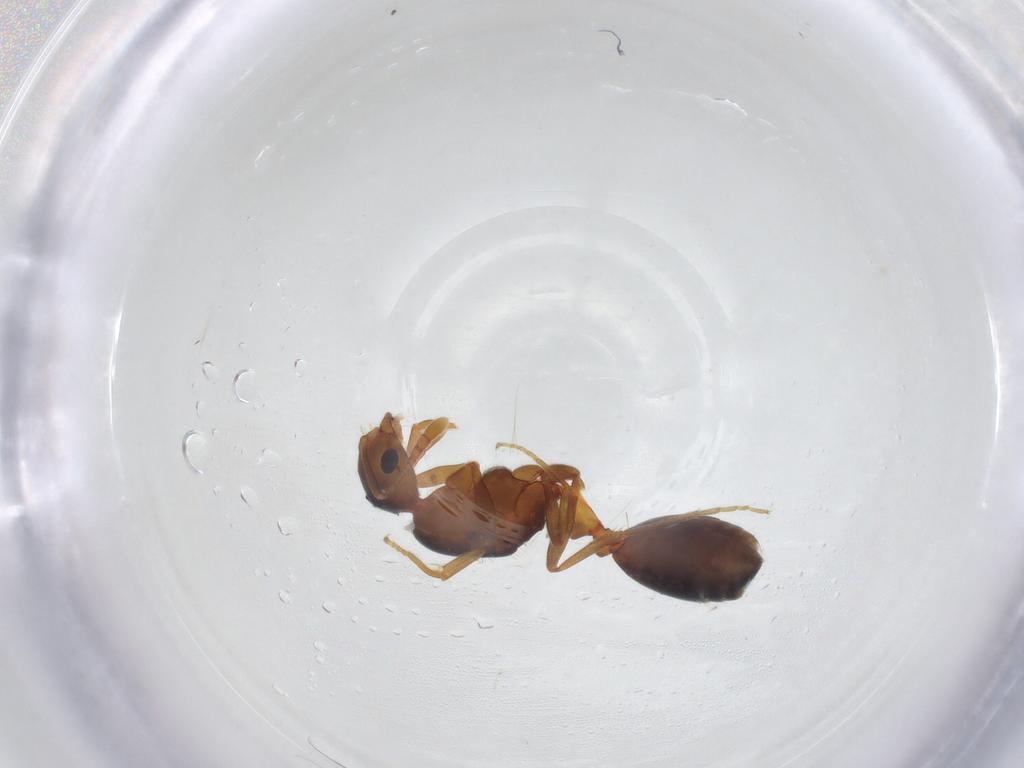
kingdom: Animalia
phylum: Arthropoda
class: Insecta
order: Hymenoptera
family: Formicidae
